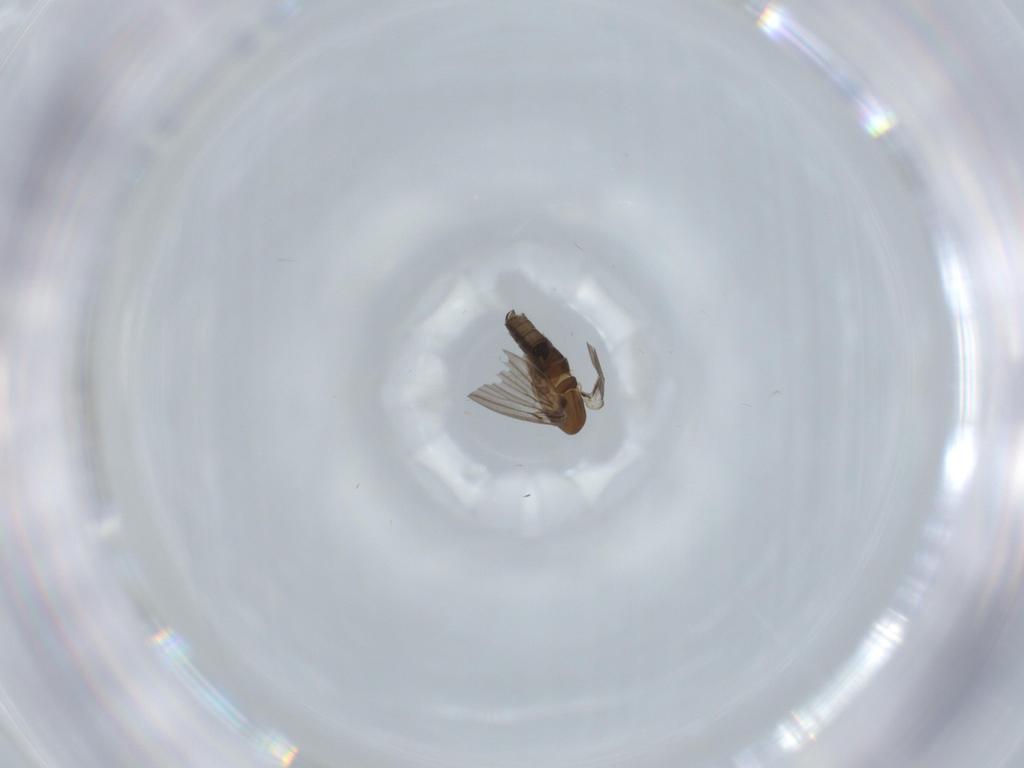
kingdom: Animalia
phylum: Arthropoda
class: Insecta
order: Diptera
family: Psychodidae
